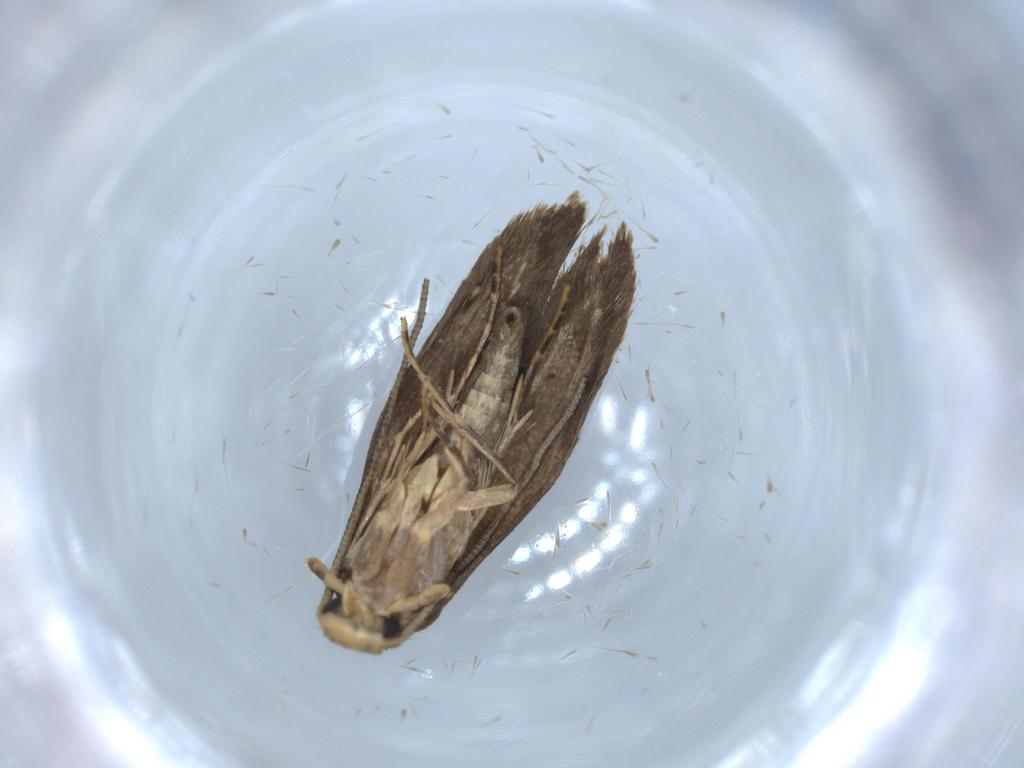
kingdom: Animalia
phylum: Arthropoda
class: Insecta
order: Lepidoptera
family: Tineidae
